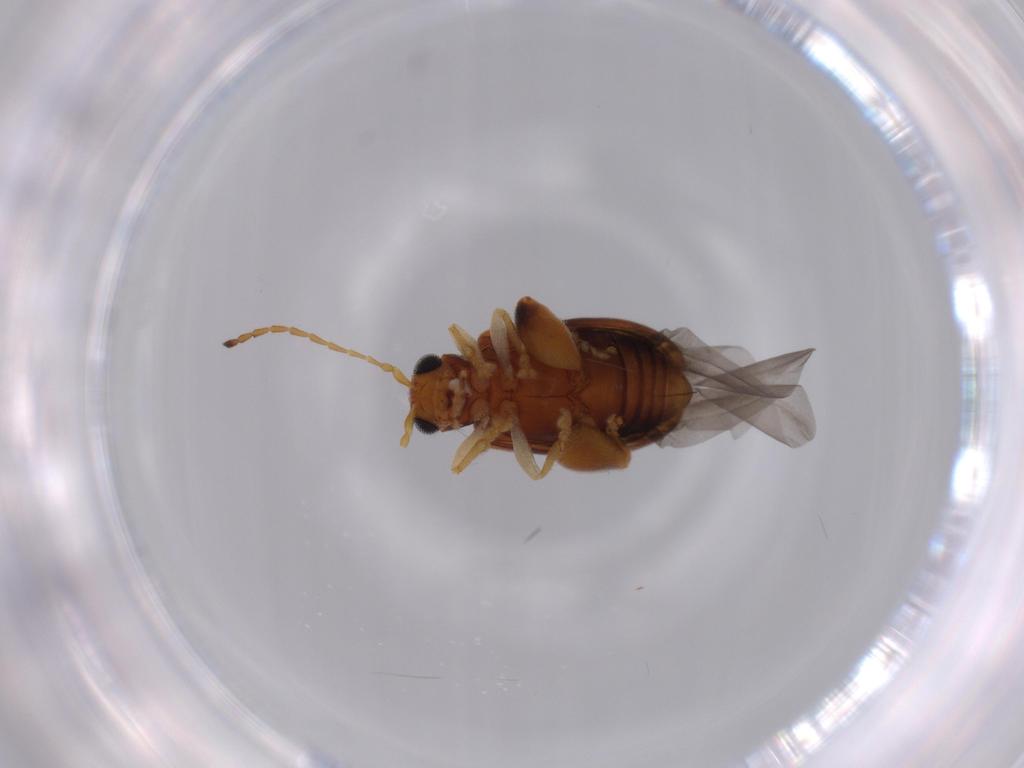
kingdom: Animalia
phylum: Arthropoda
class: Insecta
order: Coleoptera
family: Chrysomelidae
